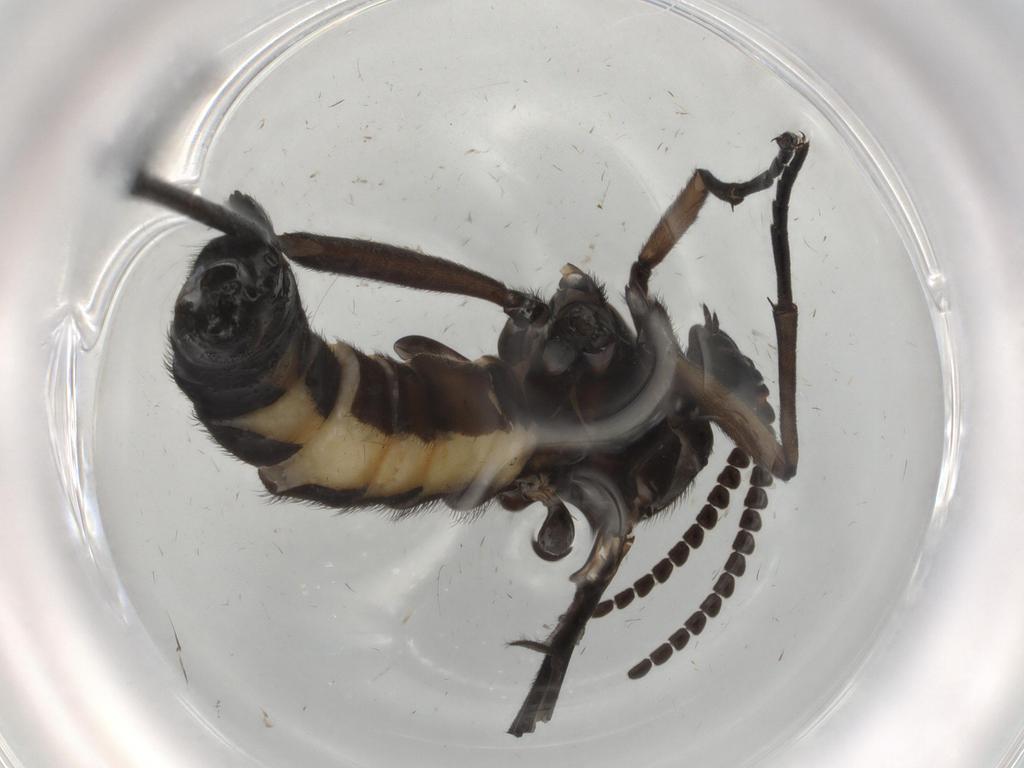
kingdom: Animalia
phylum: Arthropoda
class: Insecta
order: Diptera
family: Sciaridae
